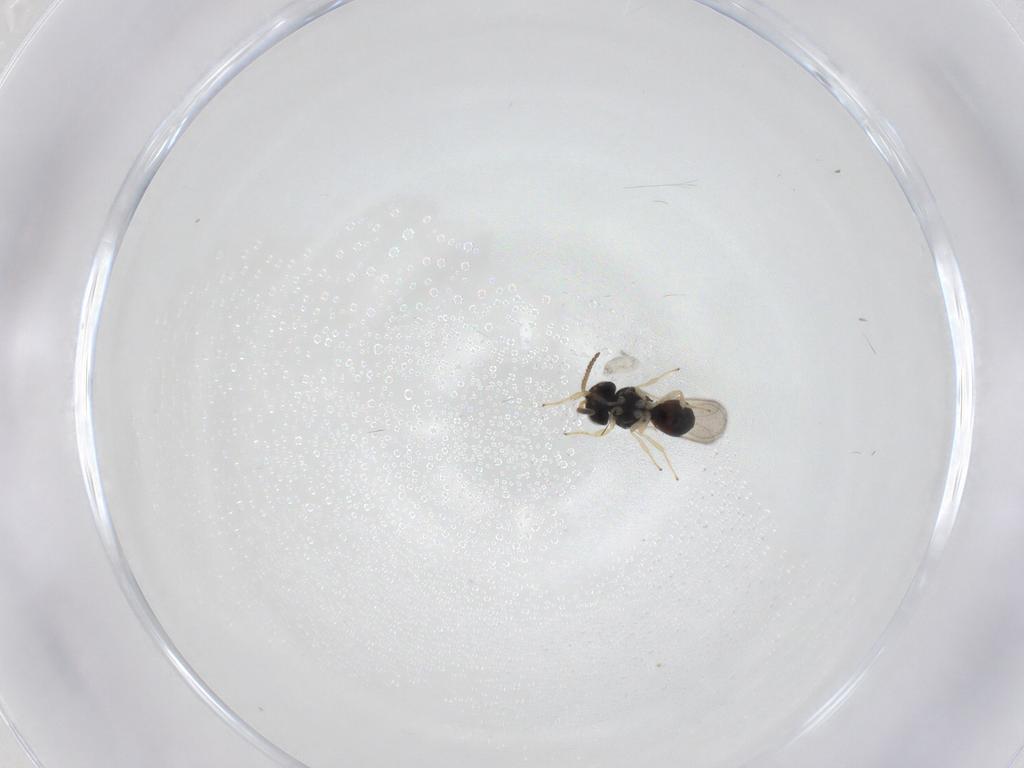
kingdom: Animalia
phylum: Arthropoda
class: Insecta
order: Hymenoptera
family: Scelionidae
